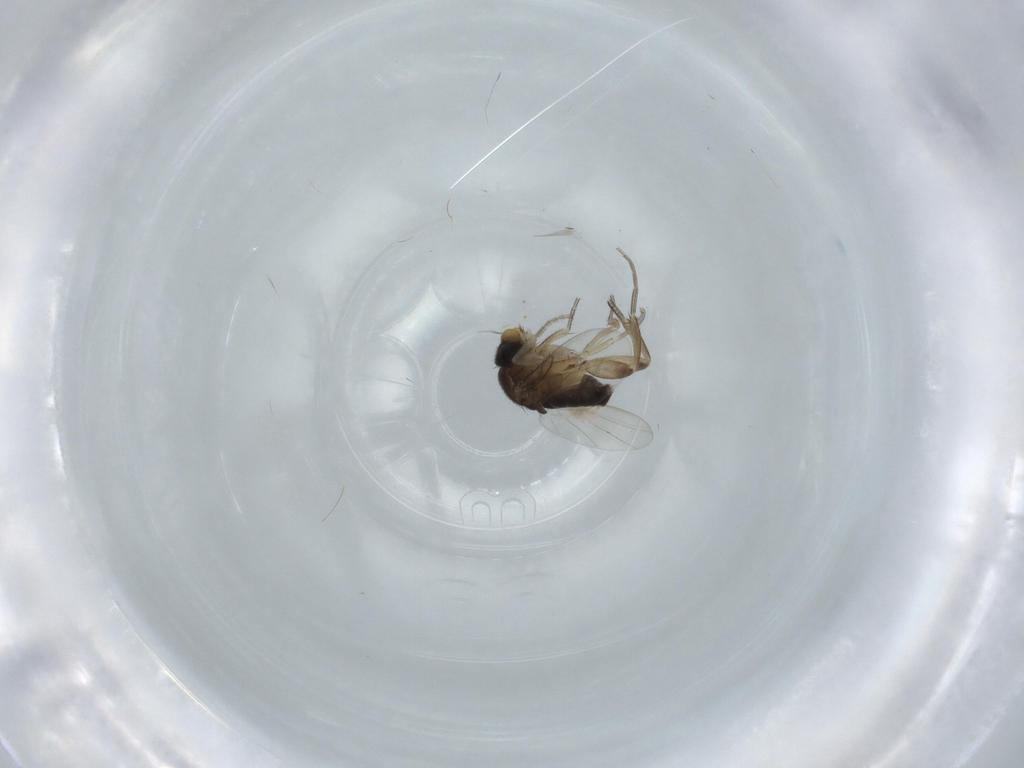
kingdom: Animalia
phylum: Arthropoda
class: Insecta
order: Diptera
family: Phoridae
